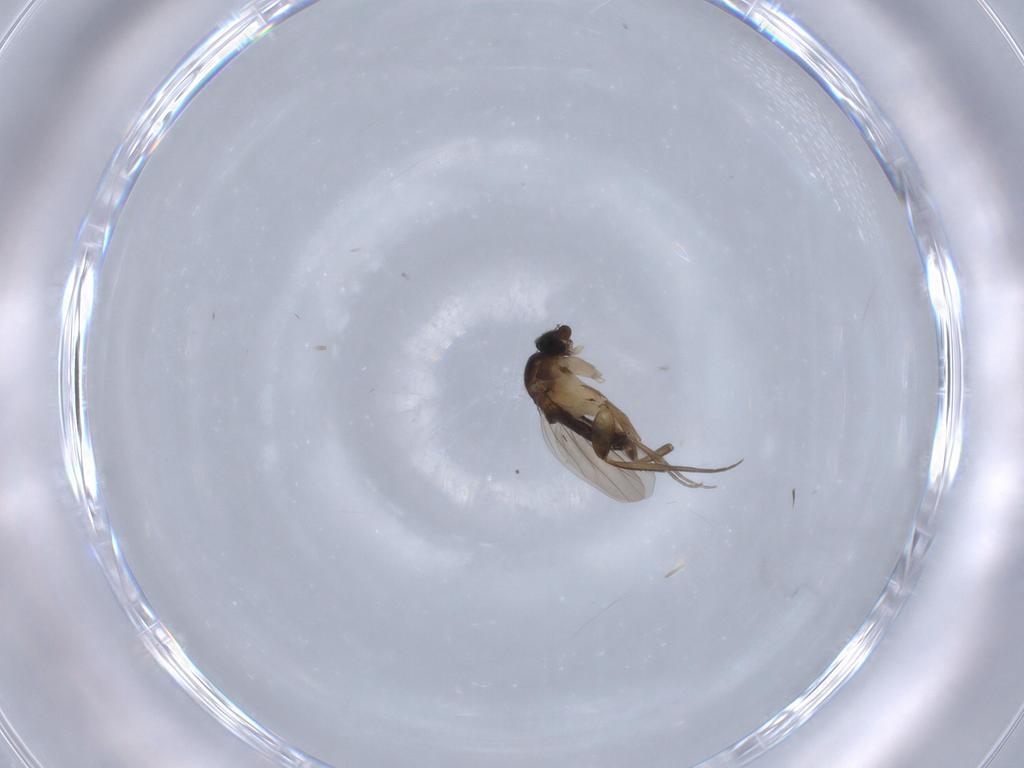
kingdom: Animalia
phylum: Arthropoda
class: Insecta
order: Diptera
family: Phoridae
